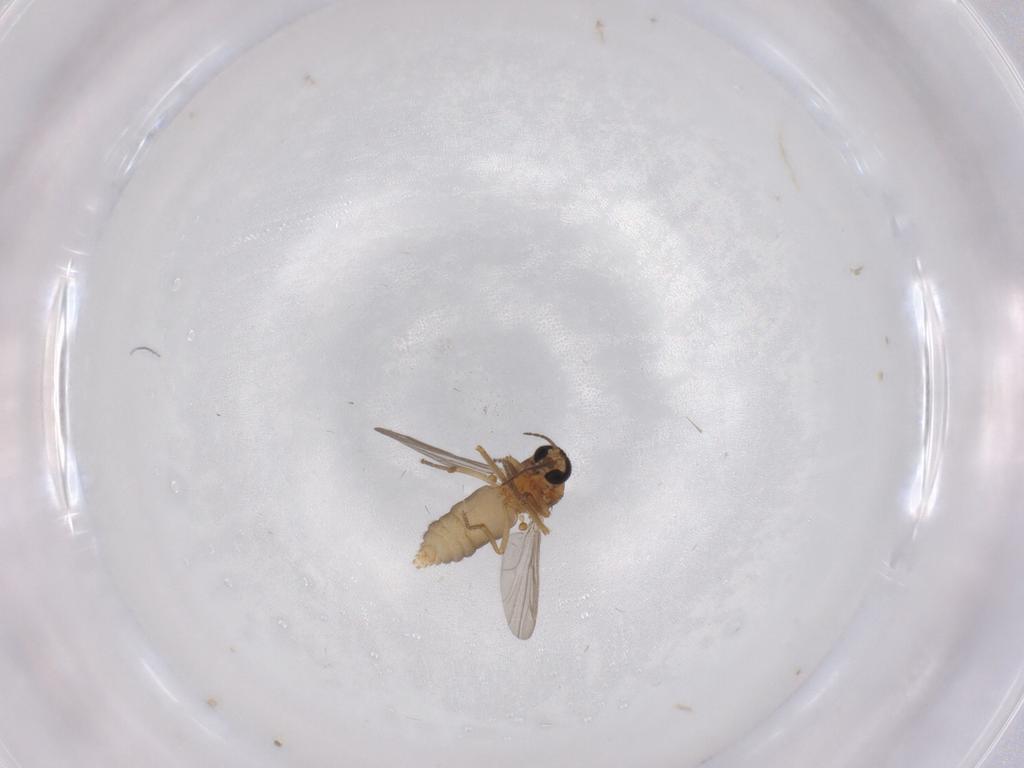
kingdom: Animalia
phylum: Arthropoda
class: Insecta
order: Diptera
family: Ceratopogonidae
